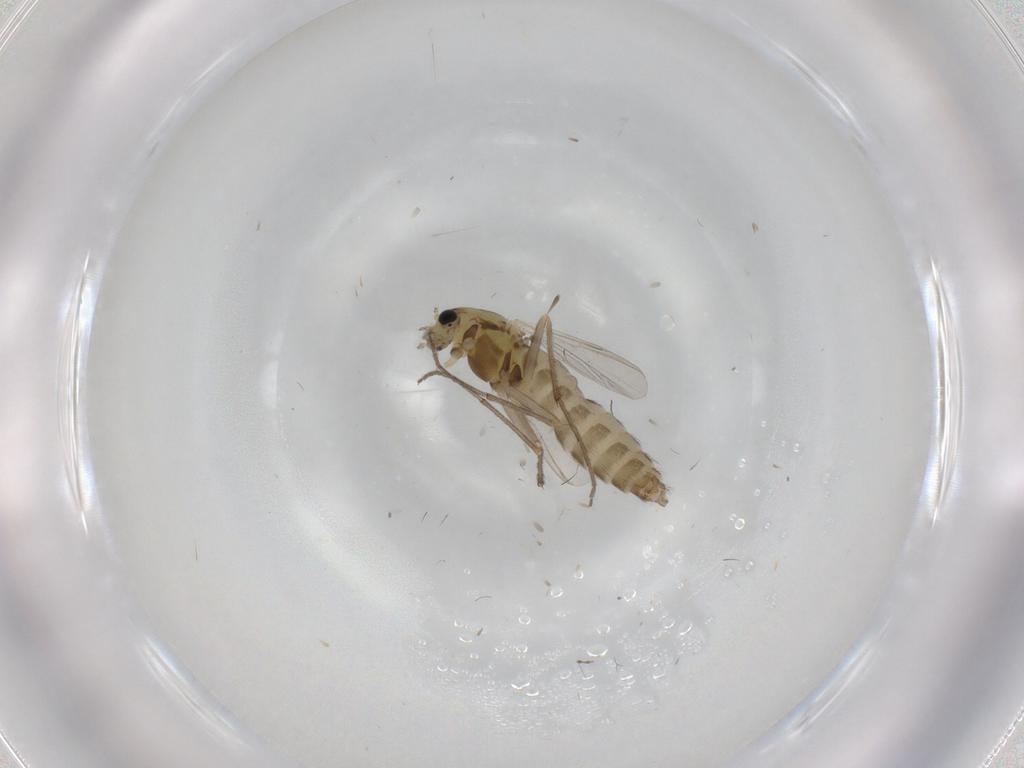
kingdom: Animalia
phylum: Arthropoda
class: Insecta
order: Diptera
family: Chironomidae
